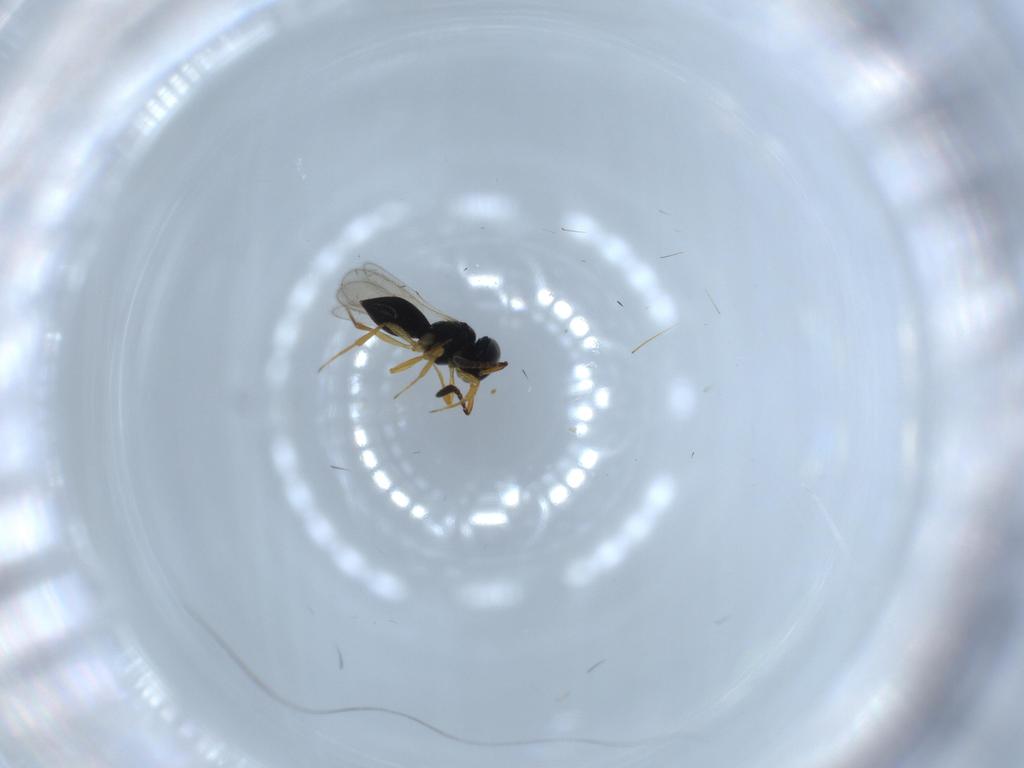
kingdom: Animalia
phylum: Arthropoda
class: Insecta
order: Hymenoptera
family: Scelionidae
